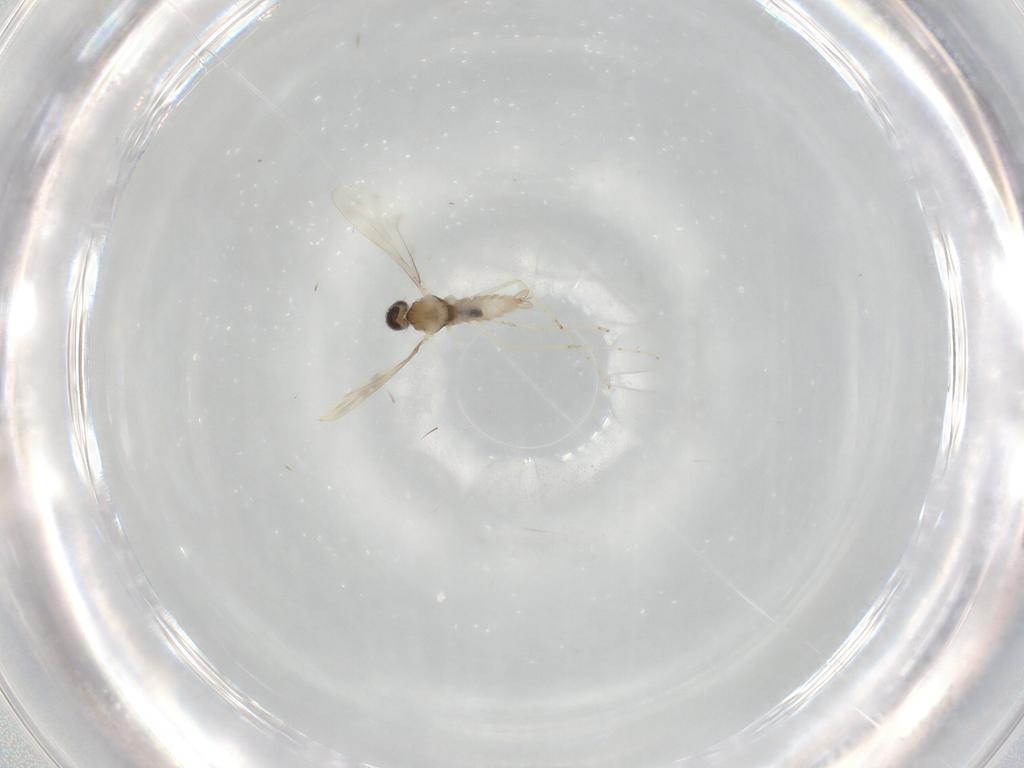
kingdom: Animalia
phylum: Arthropoda
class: Insecta
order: Diptera
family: Cecidomyiidae
